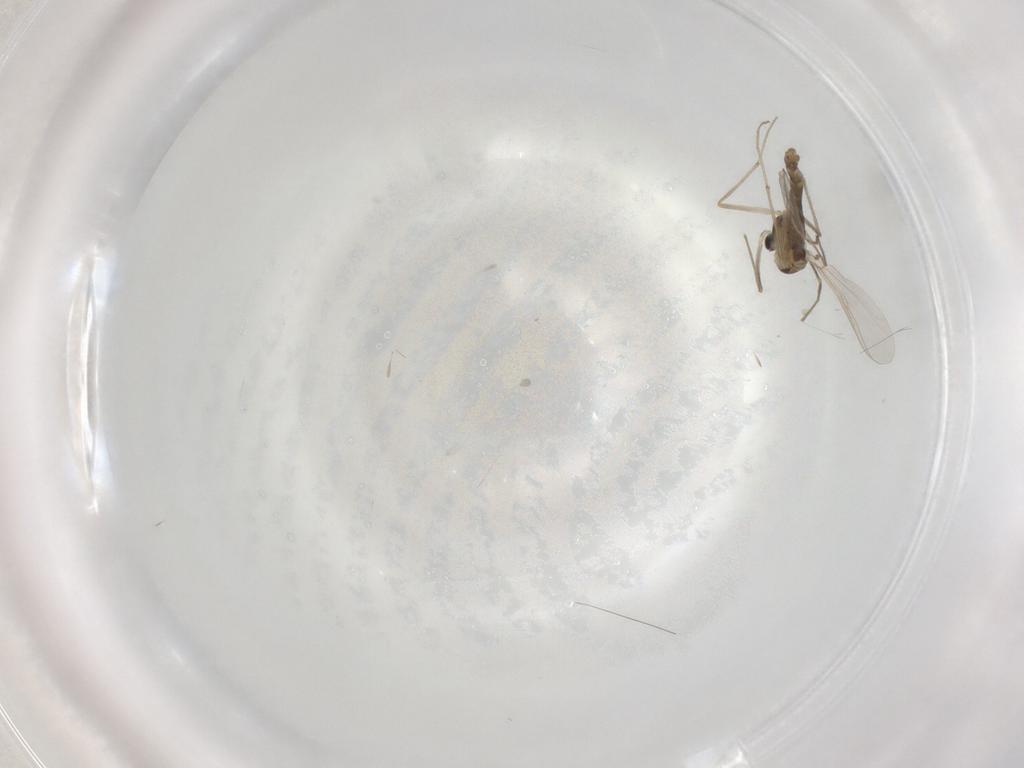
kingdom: Animalia
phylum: Arthropoda
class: Insecta
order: Diptera
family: Chironomidae
